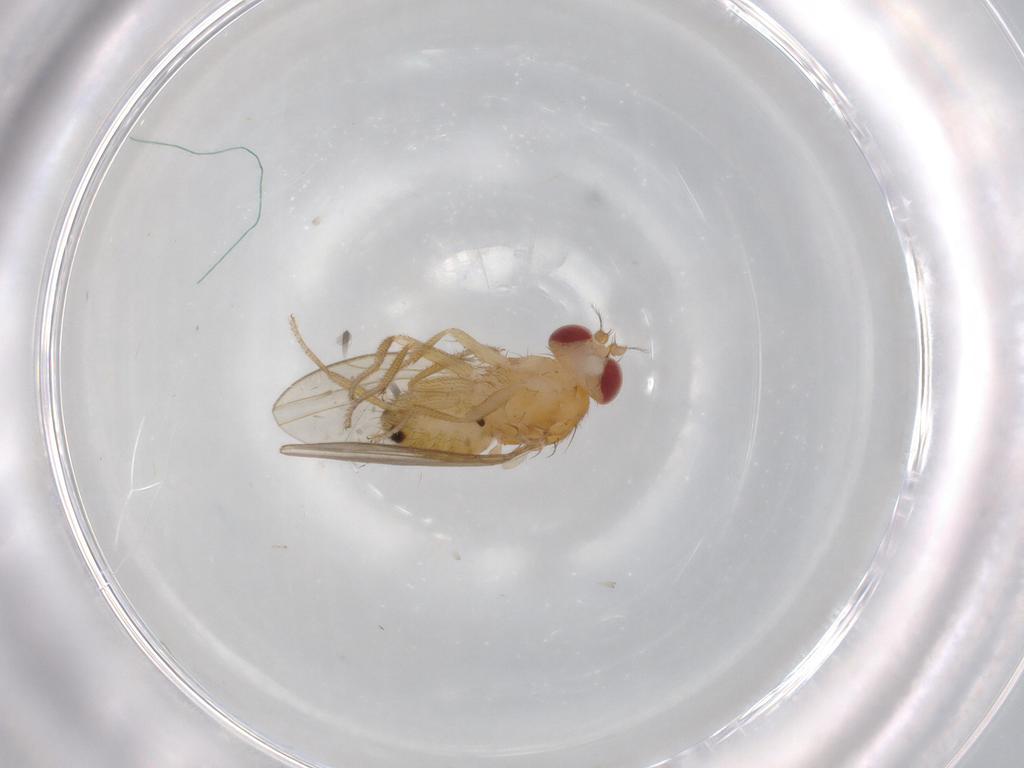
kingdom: Animalia
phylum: Arthropoda
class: Insecta
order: Diptera
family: Drosophilidae
